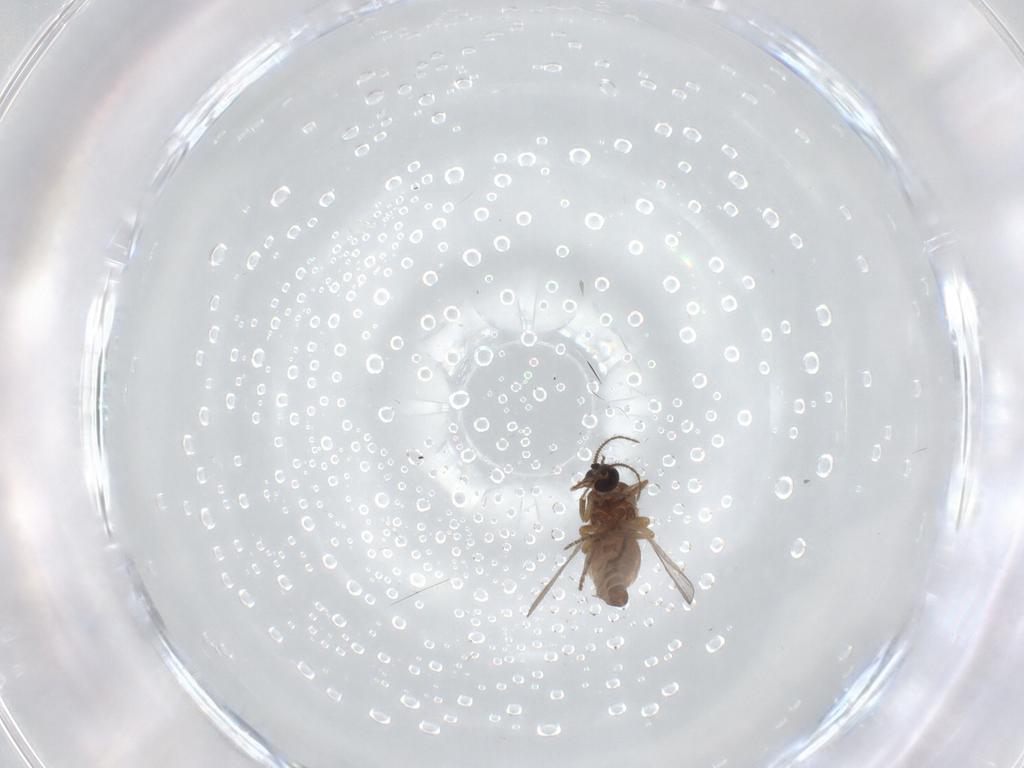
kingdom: Animalia
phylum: Arthropoda
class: Insecta
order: Diptera
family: Ceratopogonidae
